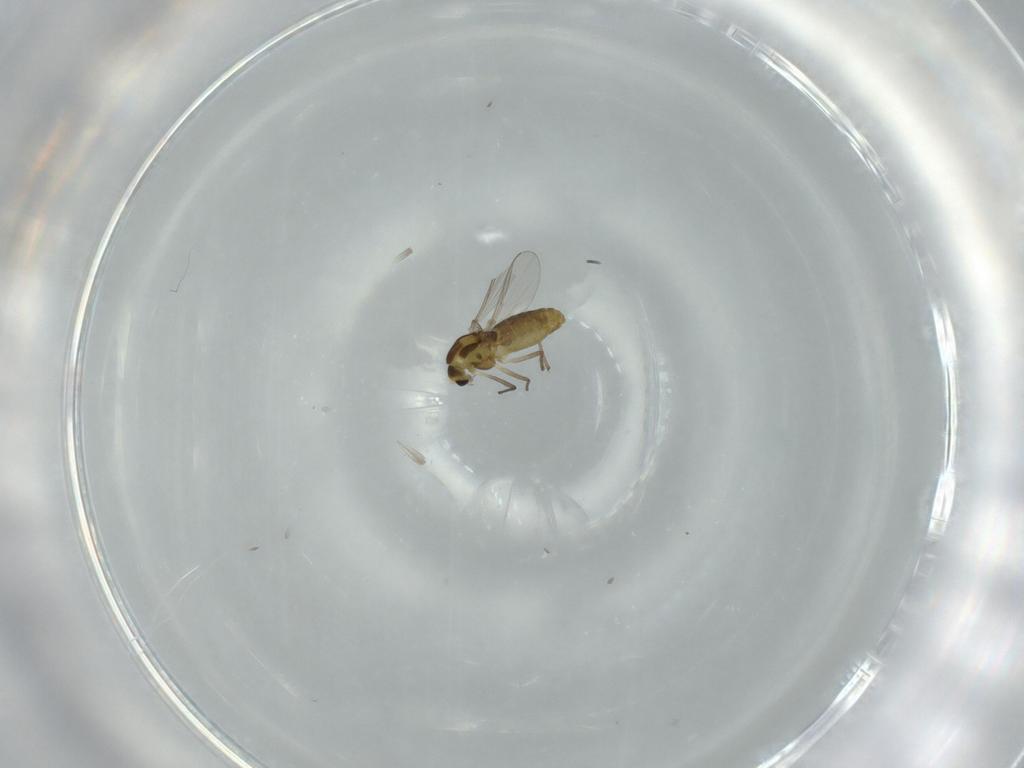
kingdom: Animalia
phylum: Arthropoda
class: Insecta
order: Diptera
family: Chironomidae
